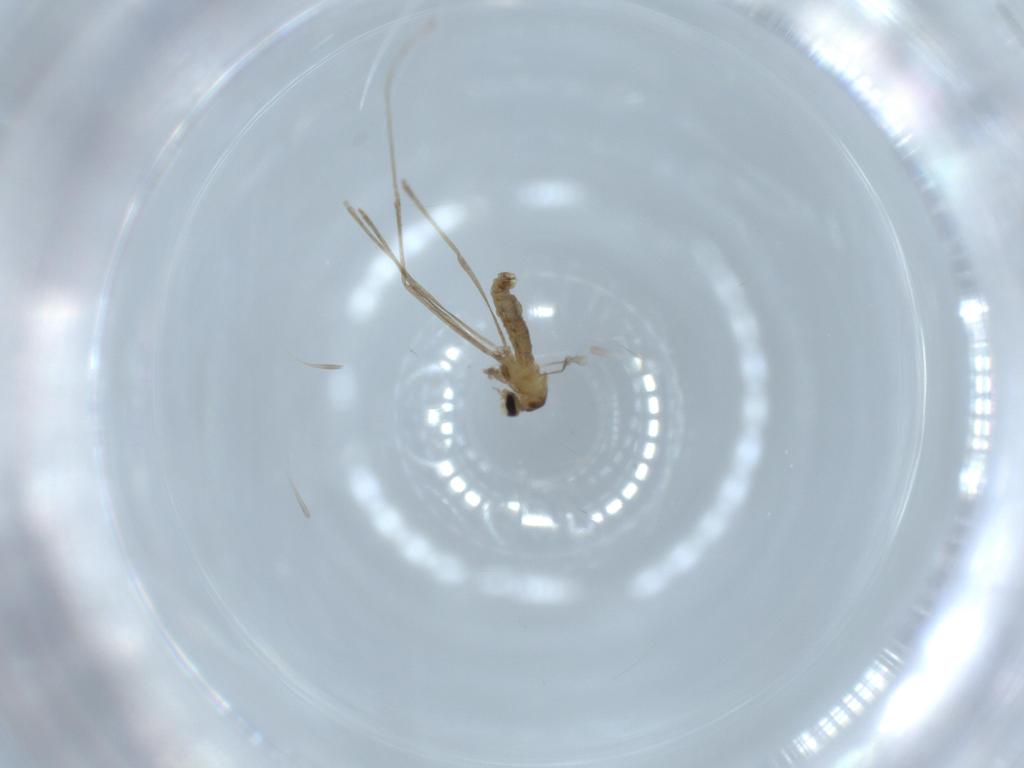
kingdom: Animalia
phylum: Arthropoda
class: Insecta
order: Diptera
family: Cecidomyiidae
